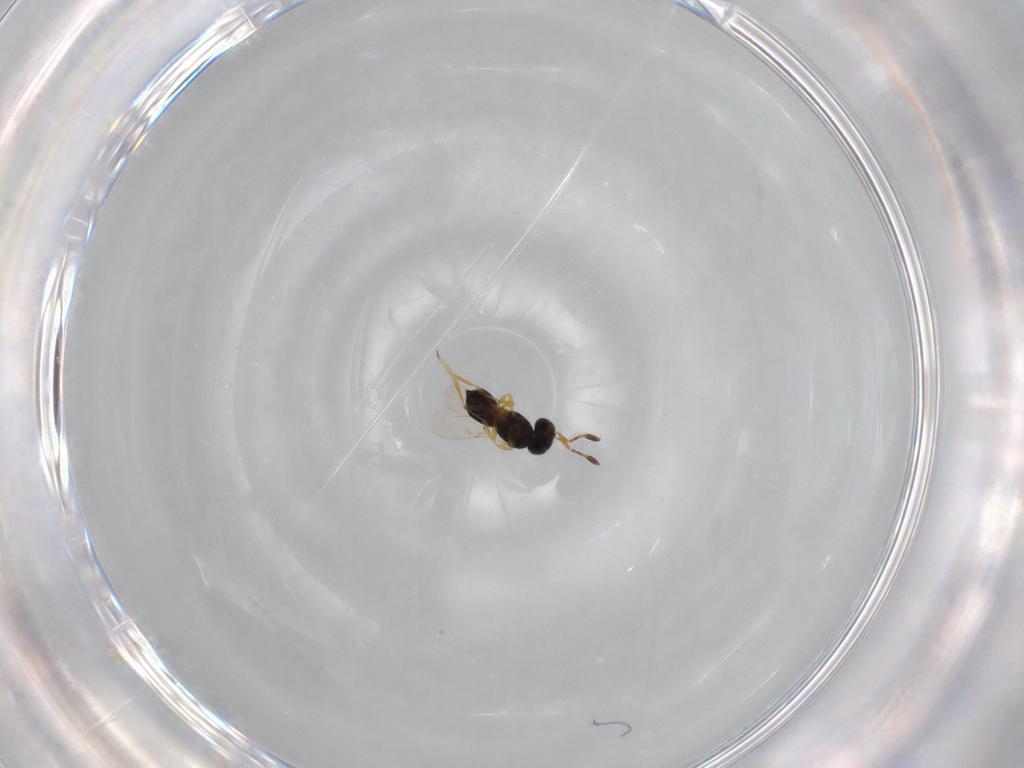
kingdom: Animalia
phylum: Arthropoda
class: Insecta
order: Hymenoptera
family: Scelionidae
